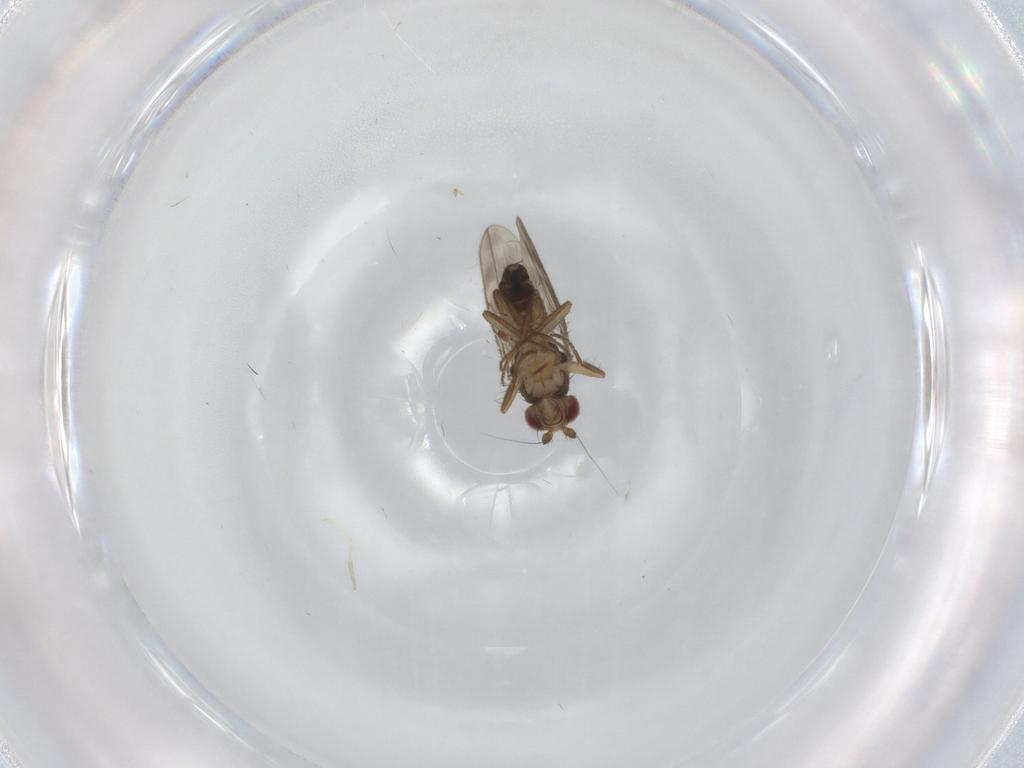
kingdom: Animalia
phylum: Arthropoda
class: Insecta
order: Diptera
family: Sphaeroceridae
